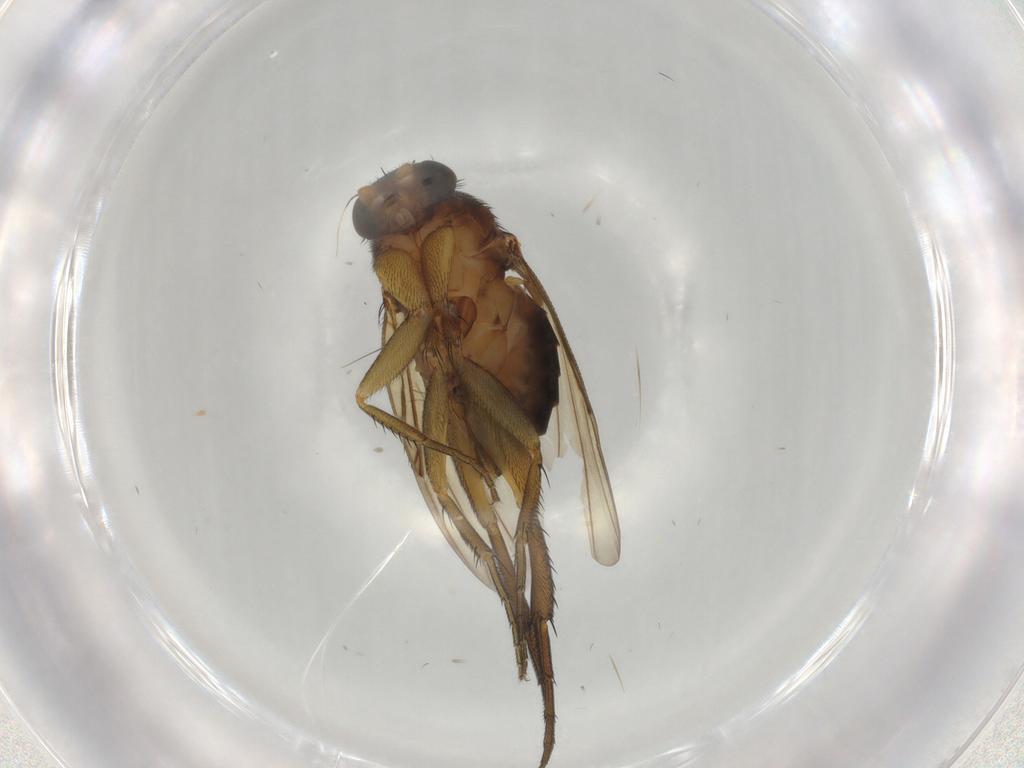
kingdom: Animalia
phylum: Arthropoda
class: Insecta
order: Diptera
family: Phoridae
